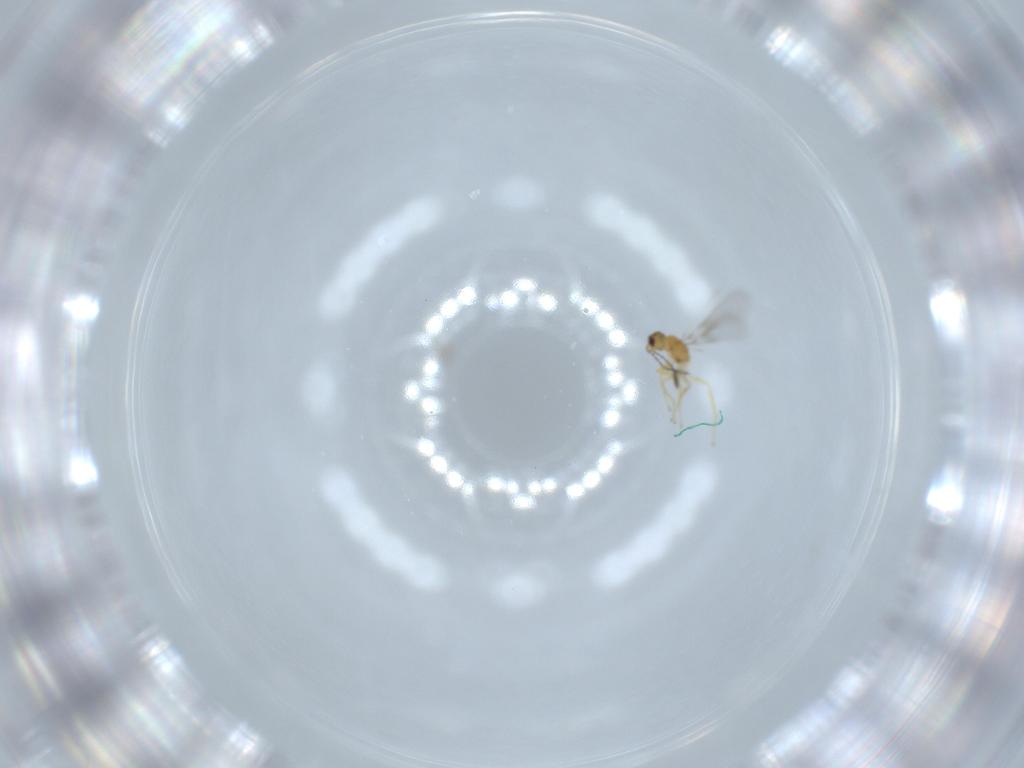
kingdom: Animalia
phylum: Arthropoda
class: Insecta
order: Hymenoptera
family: Mymaridae
